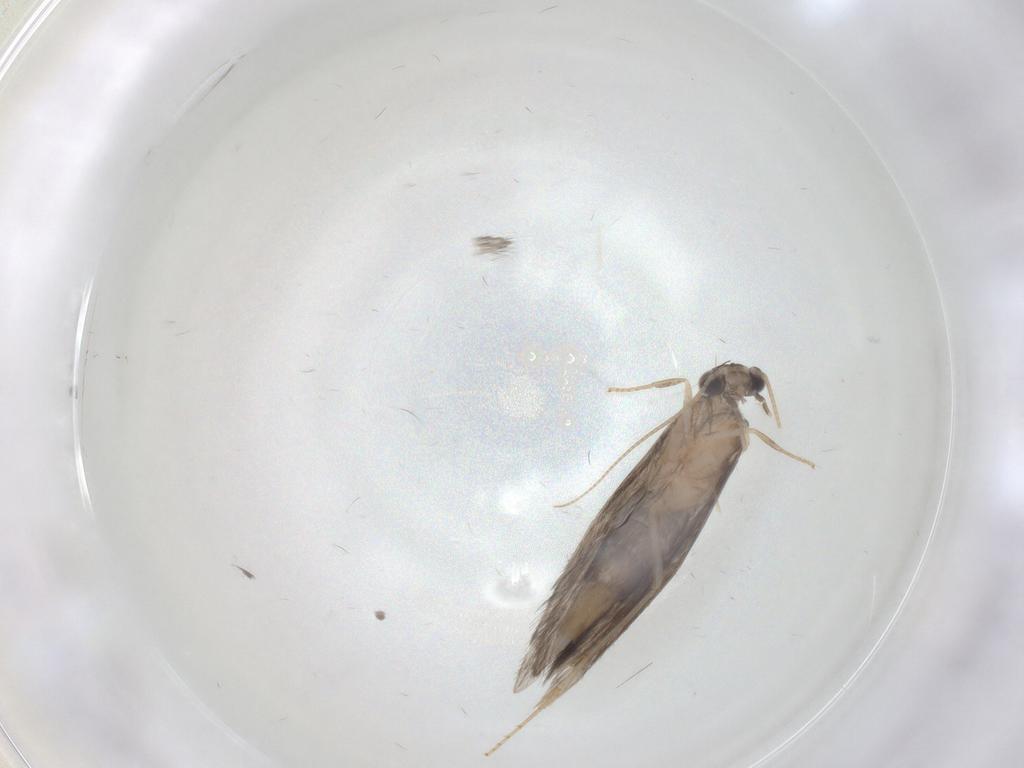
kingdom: Animalia
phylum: Arthropoda
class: Insecta
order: Trichoptera
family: Hydroptilidae
